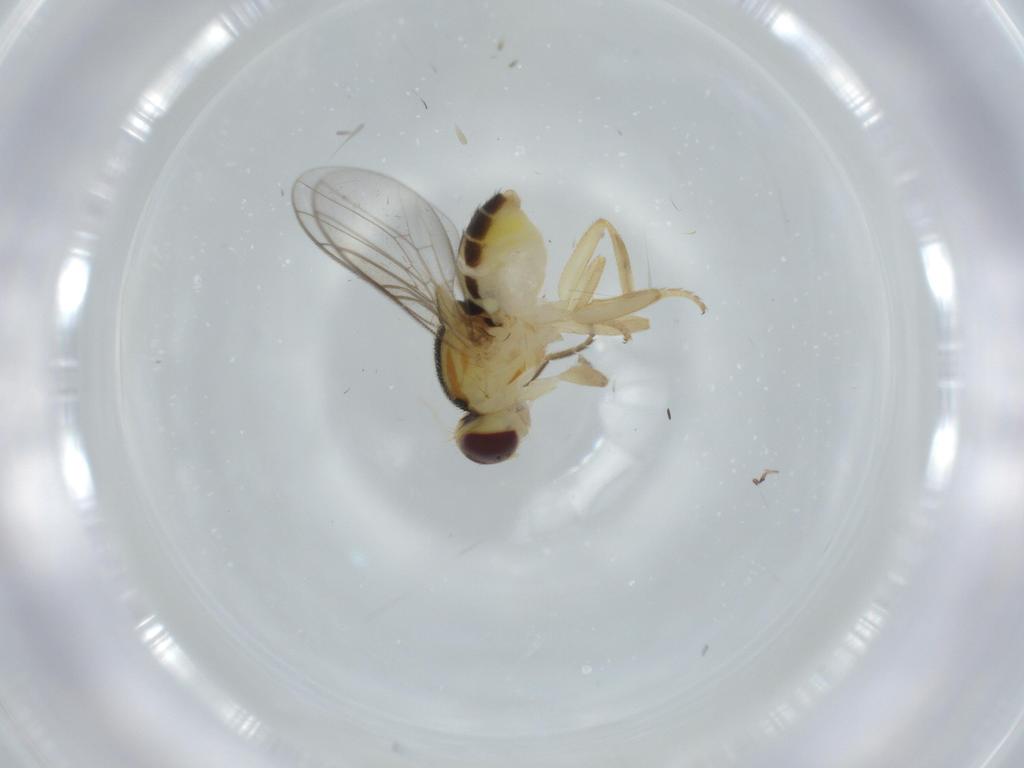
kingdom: Animalia
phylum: Arthropoda
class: Insecta
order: Diptera
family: Chloropidae
